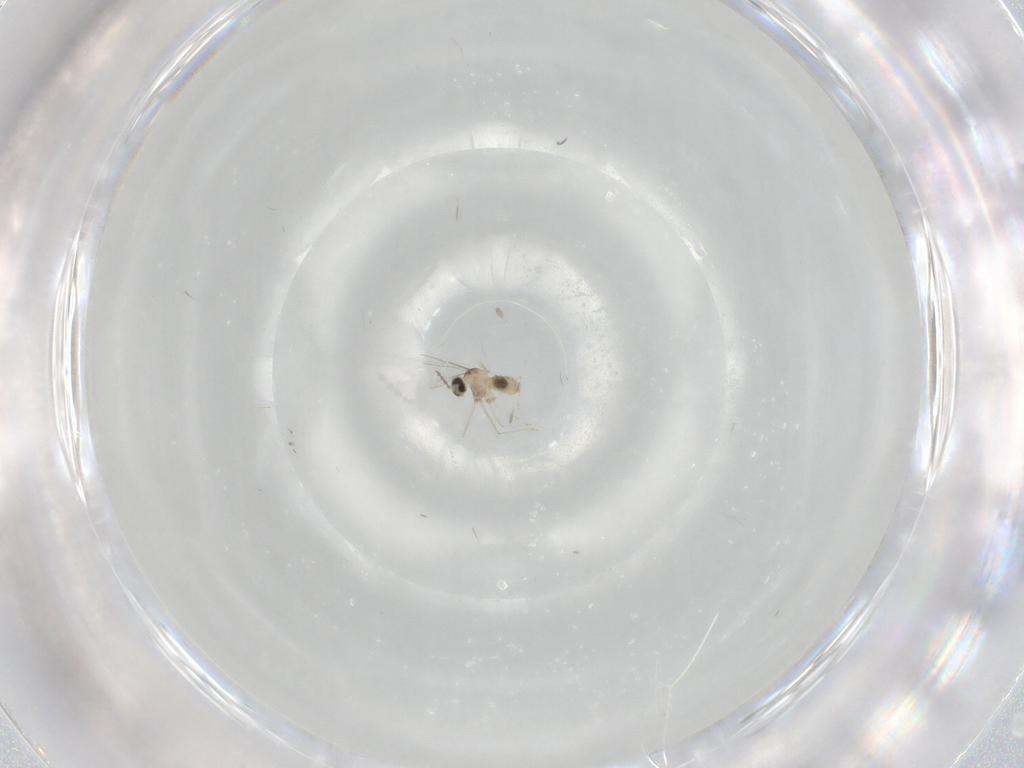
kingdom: Animalia
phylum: Arthropoda
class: Insecta
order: Diptera
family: Cecidomyiidae
